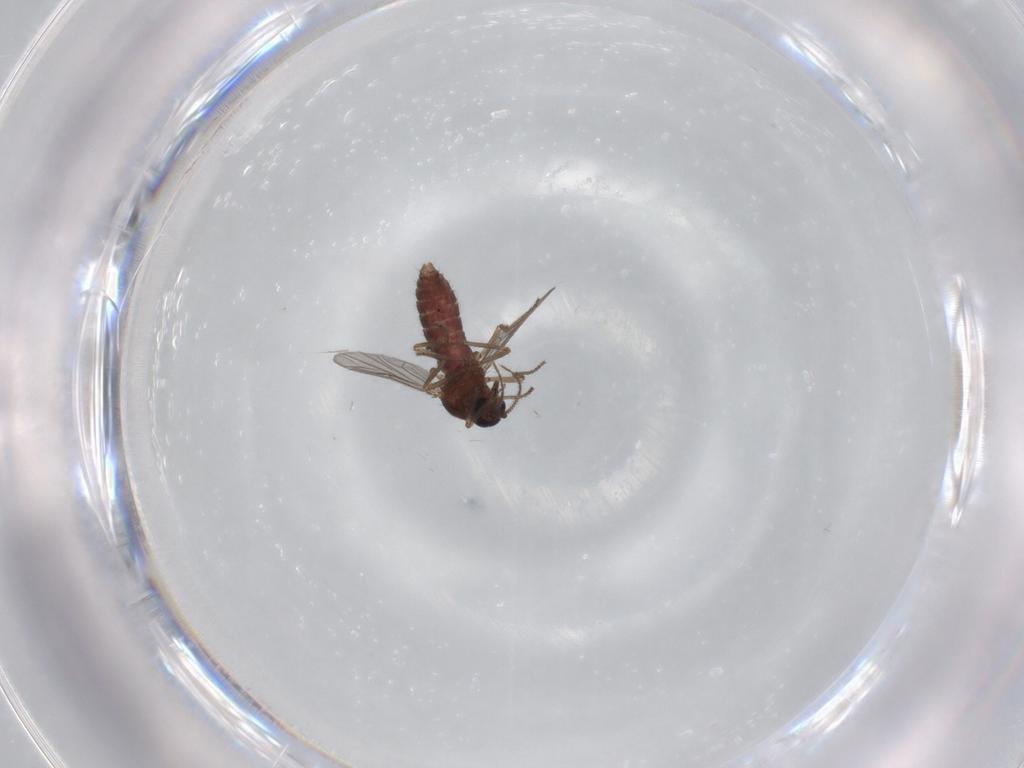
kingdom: Animalia
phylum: Arthropoda
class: Insecta
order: Diptera
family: Ceratopogonidae
